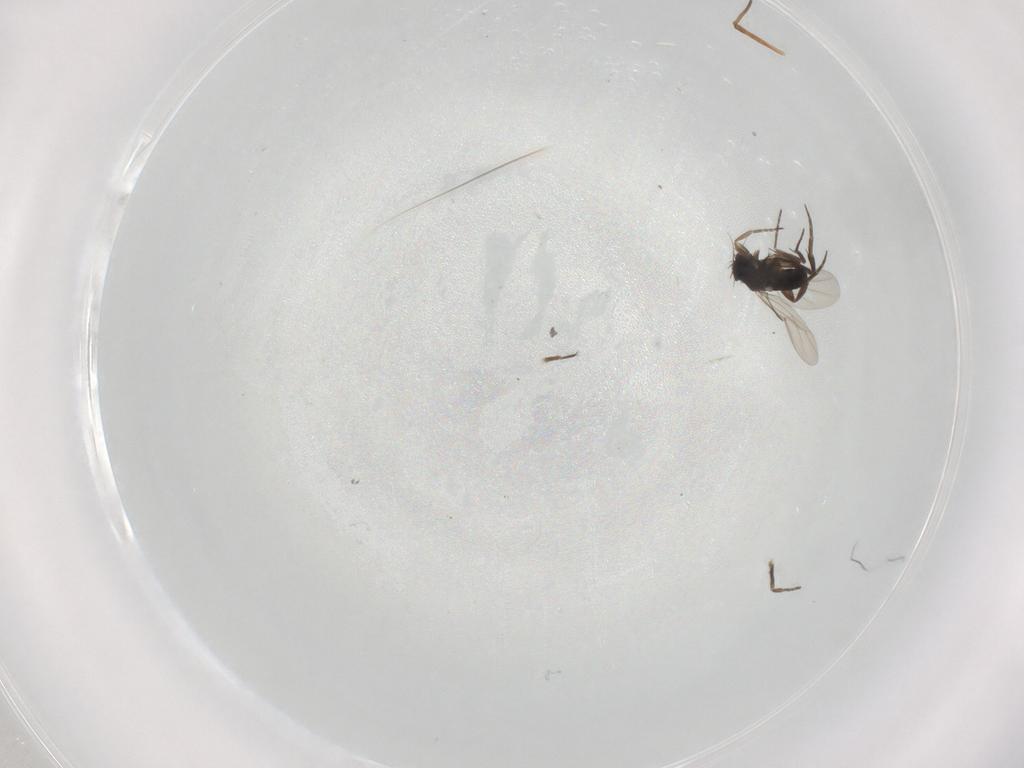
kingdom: Animalia
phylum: Arthropoda
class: Insecta
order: Diptera
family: Phoridae
